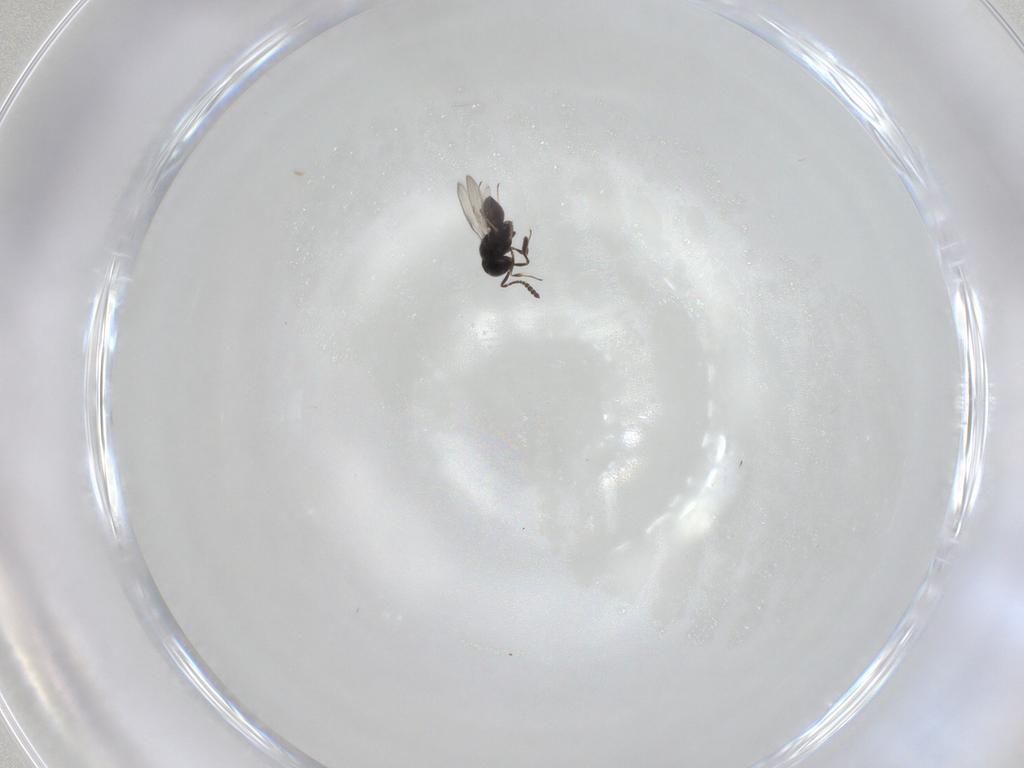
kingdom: Animalia
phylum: Arthropoda
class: Insecta
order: Hymenoptera
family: Scelionidae
